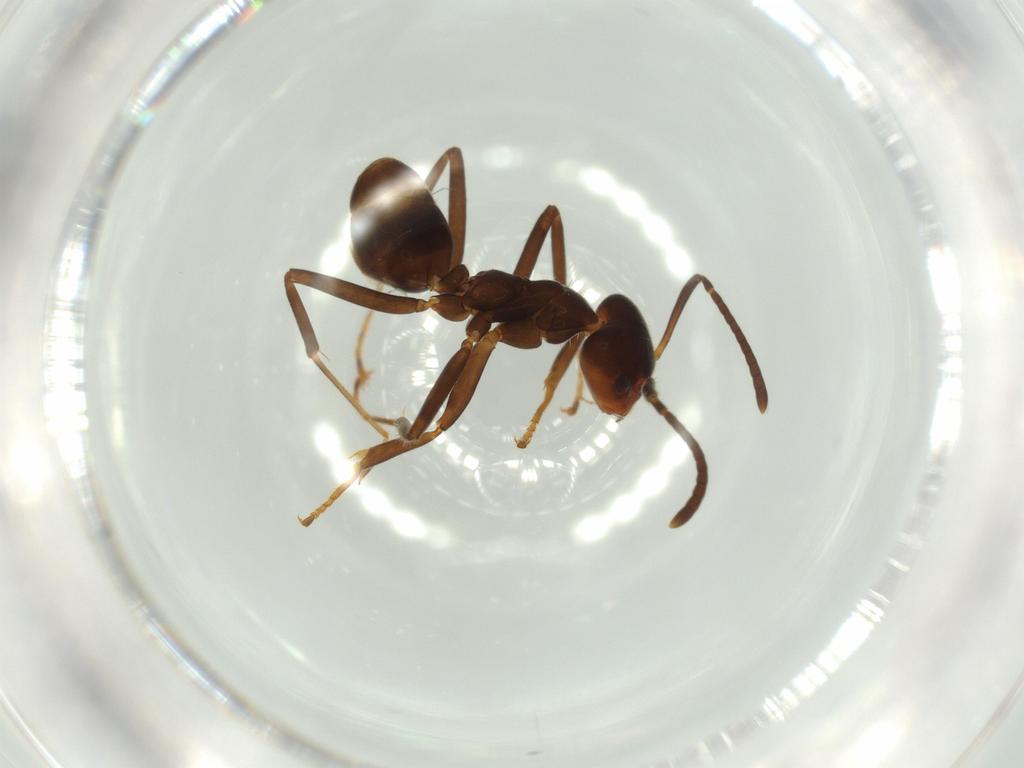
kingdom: Animalia
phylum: Arthropoda
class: Insecta
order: Hymenoptera
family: Formicidae
